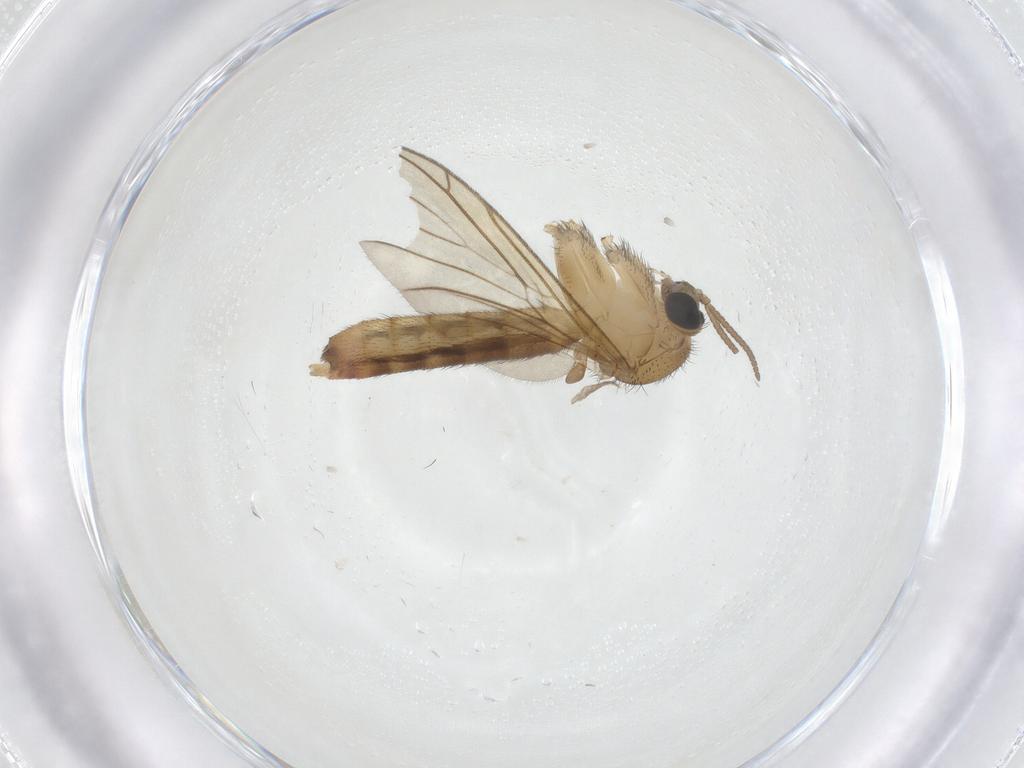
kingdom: Animalia
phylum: Arthropoda
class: Insecta
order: Diptera
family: Keroplatidae
